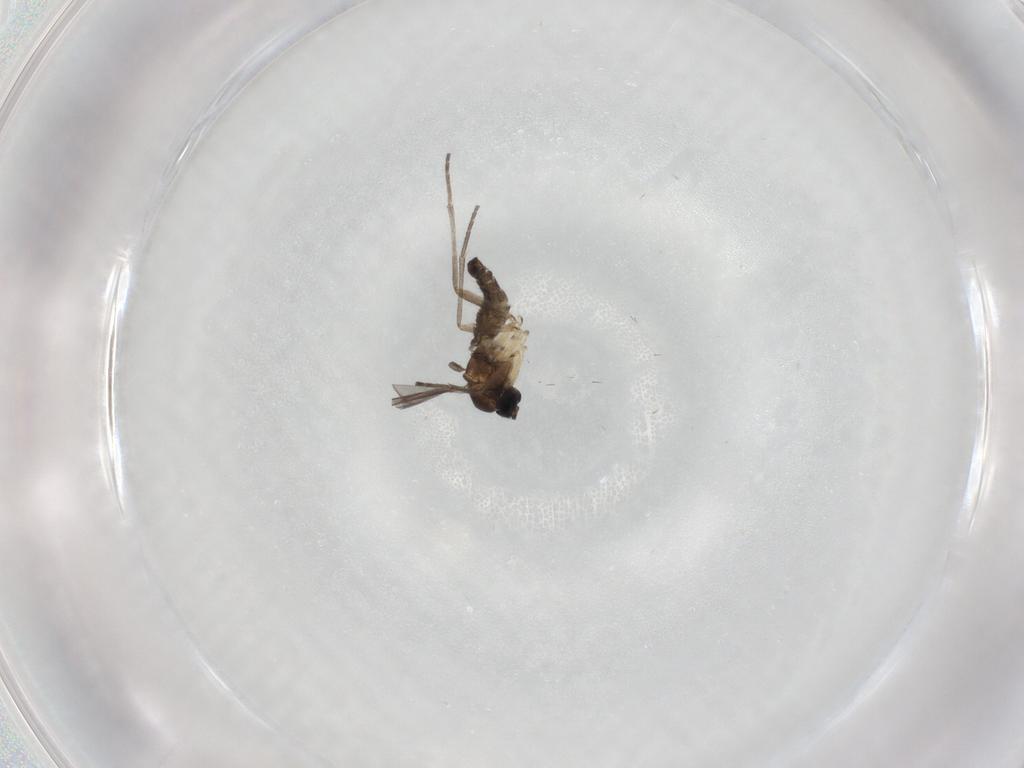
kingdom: Animalia
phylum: Arthropoda
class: Insecta
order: Diptera
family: Sciaridae
